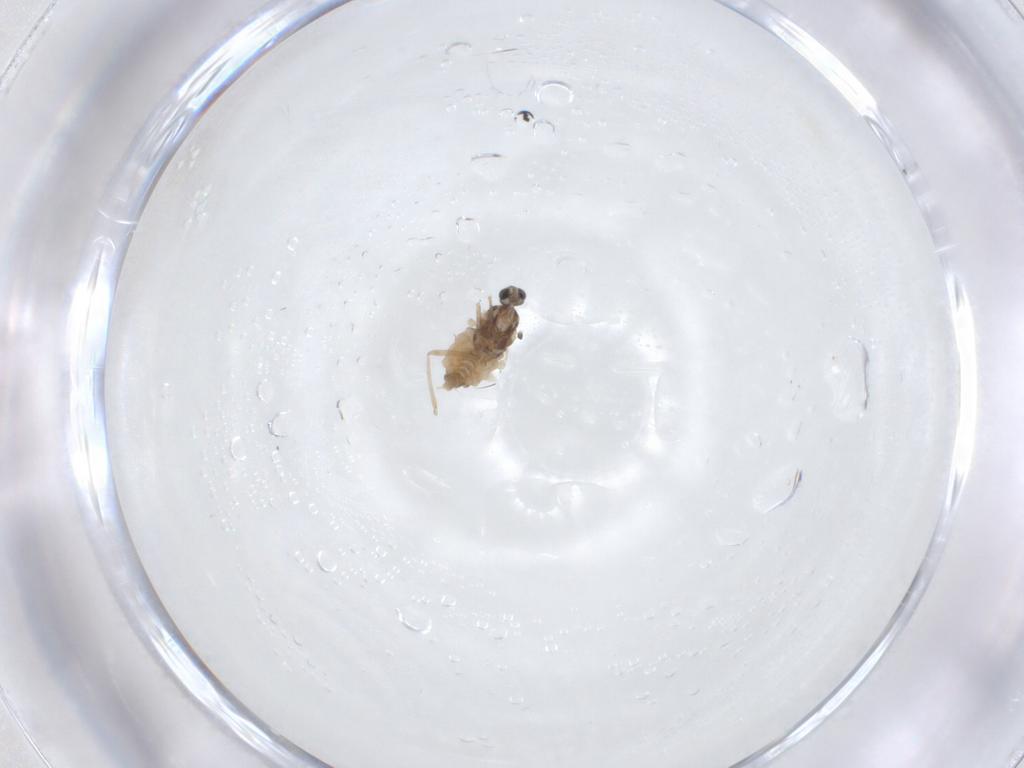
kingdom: Animalia
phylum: Arthropoda
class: Insecta
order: Diptera
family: Cecidomyiidae
